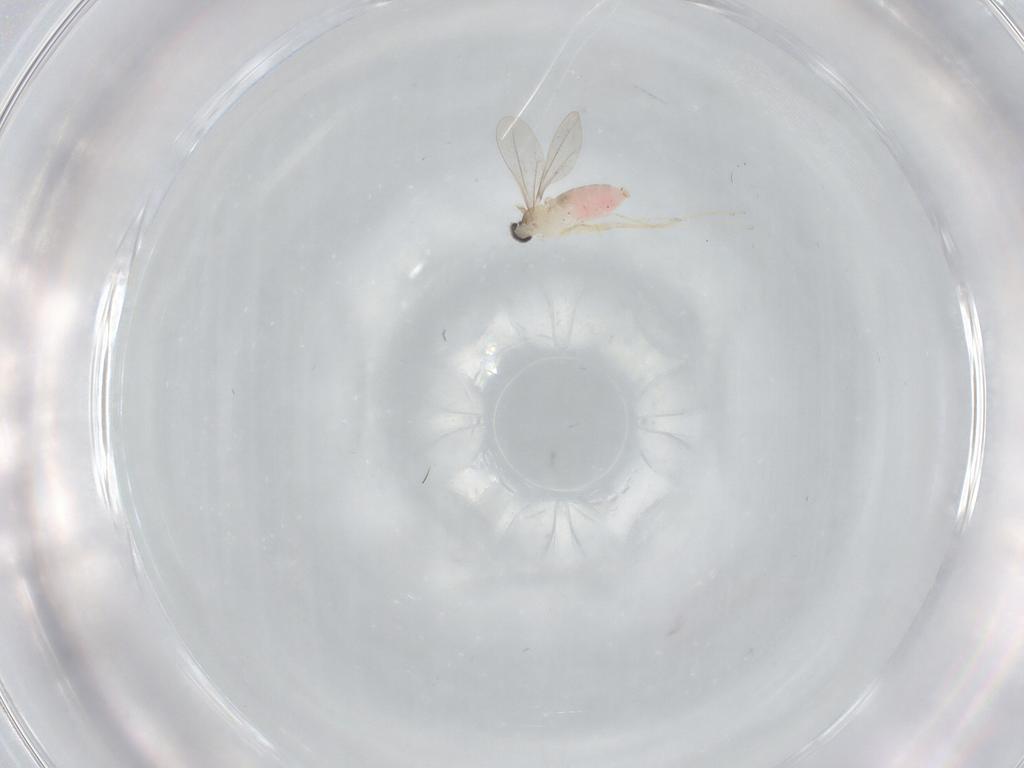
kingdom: Animalia
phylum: Arthropoda
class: Insecta
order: Diptera
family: Cecidomyiidae
